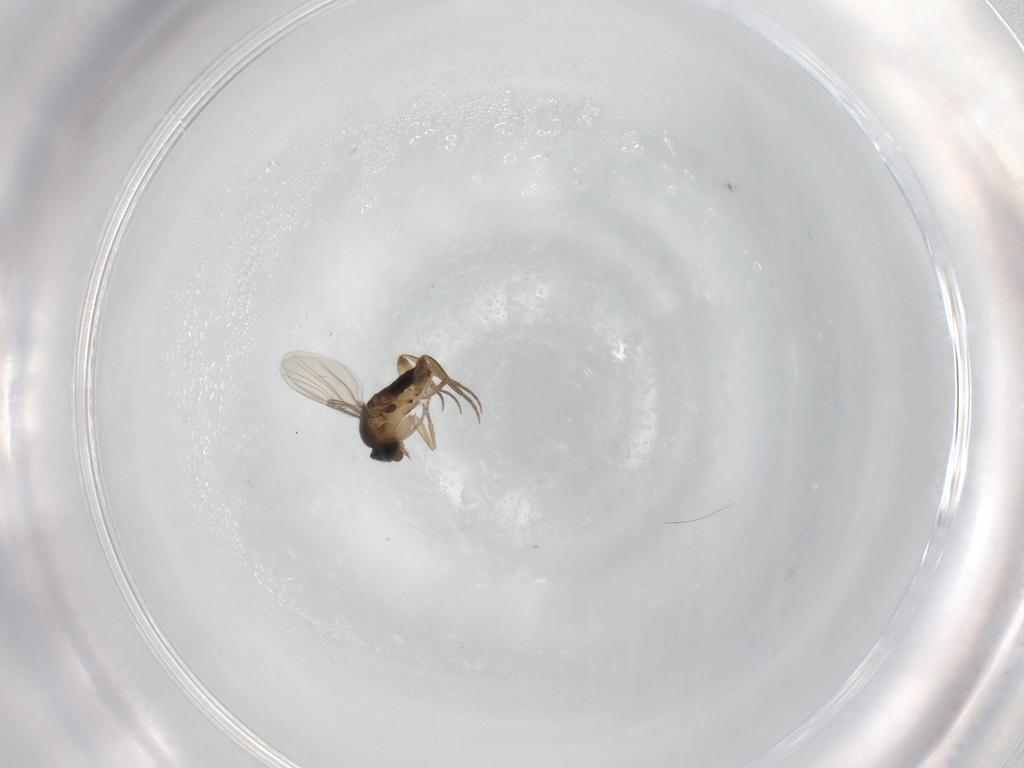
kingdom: Animalia
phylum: Arthropoda
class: Insecta
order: Diptera
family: Cecidomyiidae
